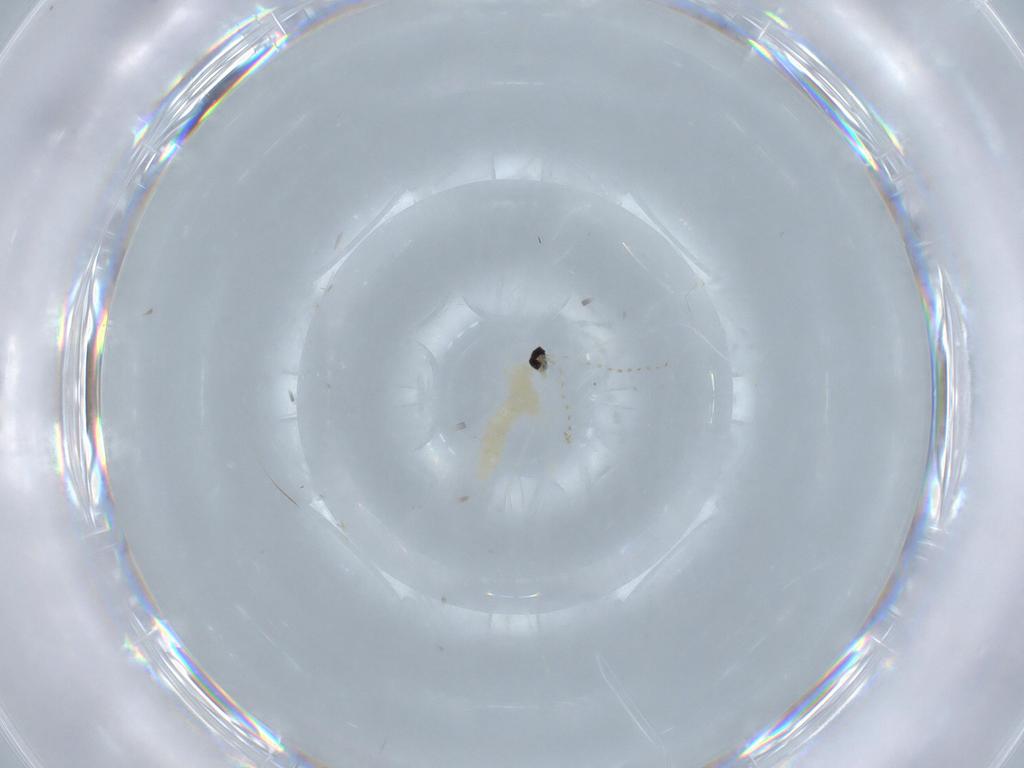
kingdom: Animalia
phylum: Arthropoda
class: Insecta
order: Diptera
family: Cecidomyiidae
